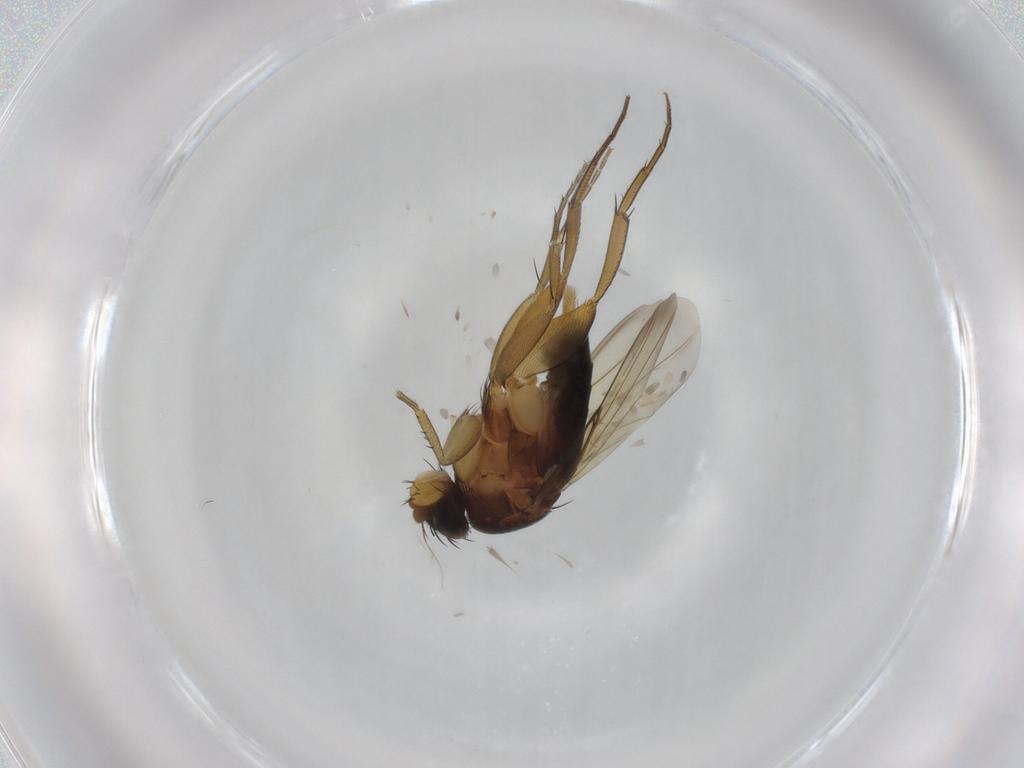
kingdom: Animalia
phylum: Arthropoda
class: Insecta
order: Diptera
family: Phoridae
